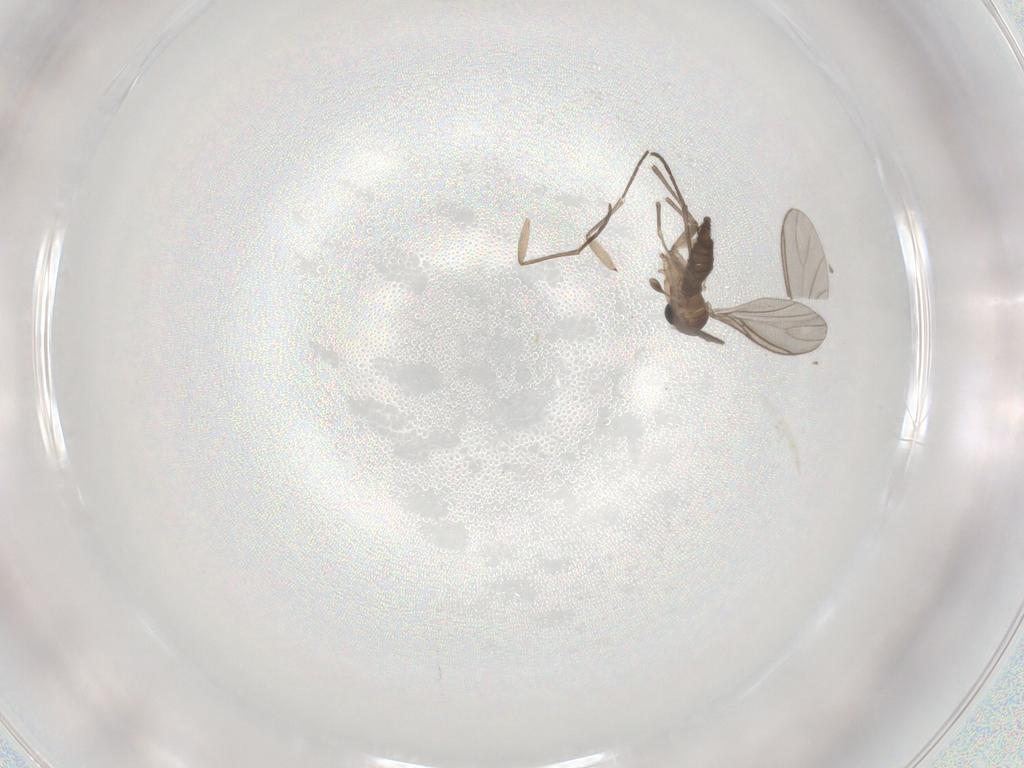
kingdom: Animalia
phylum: Arthropoda
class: Insecta
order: Diptera
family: Sciaridae
